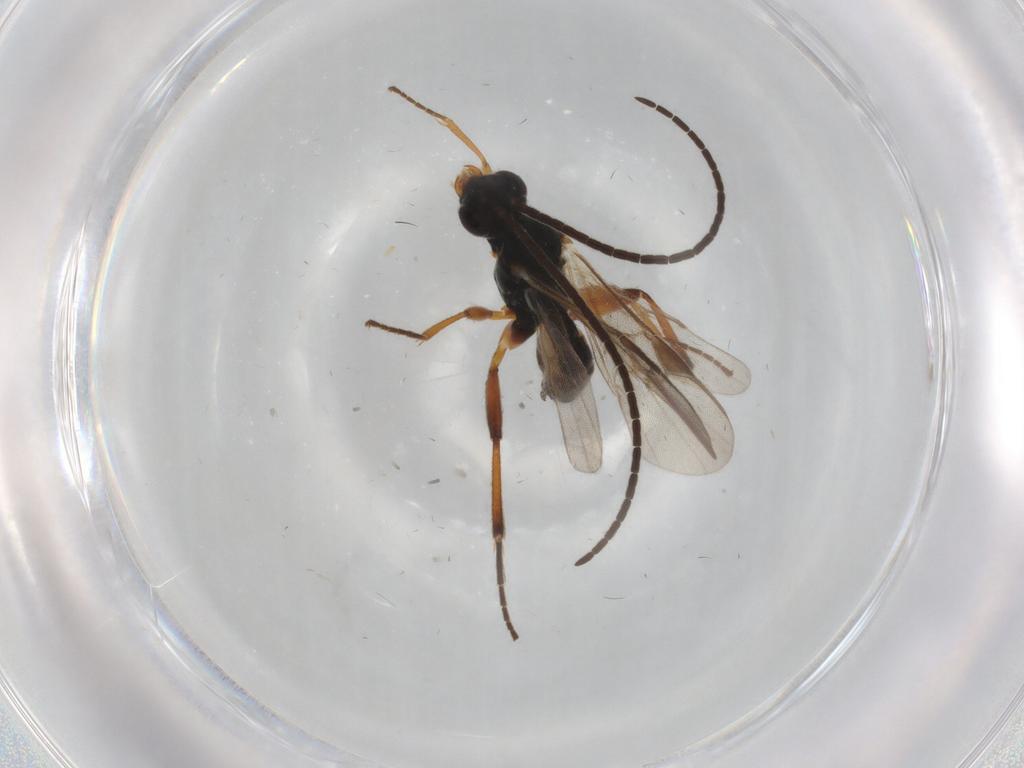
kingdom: Animalia
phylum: Arthropoda
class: Insecta
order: Hymenoptera
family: Braconidae
